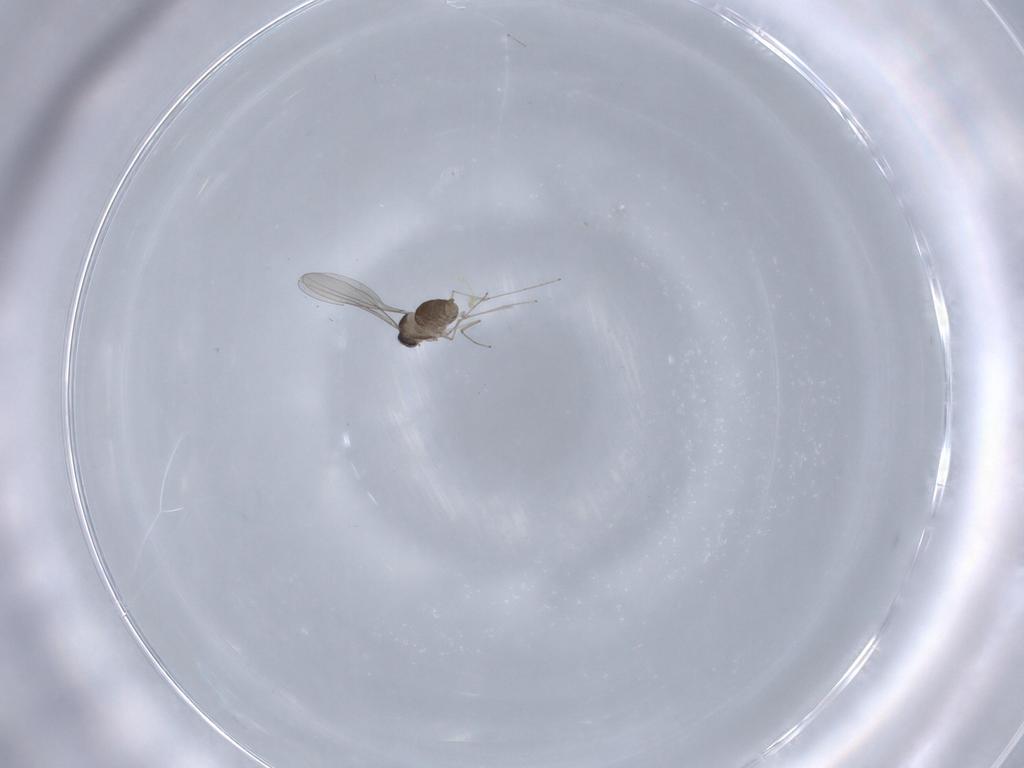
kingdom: Animalia
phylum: Arthropoda
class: Insecta
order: Diptera
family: Cecidomyiidae
